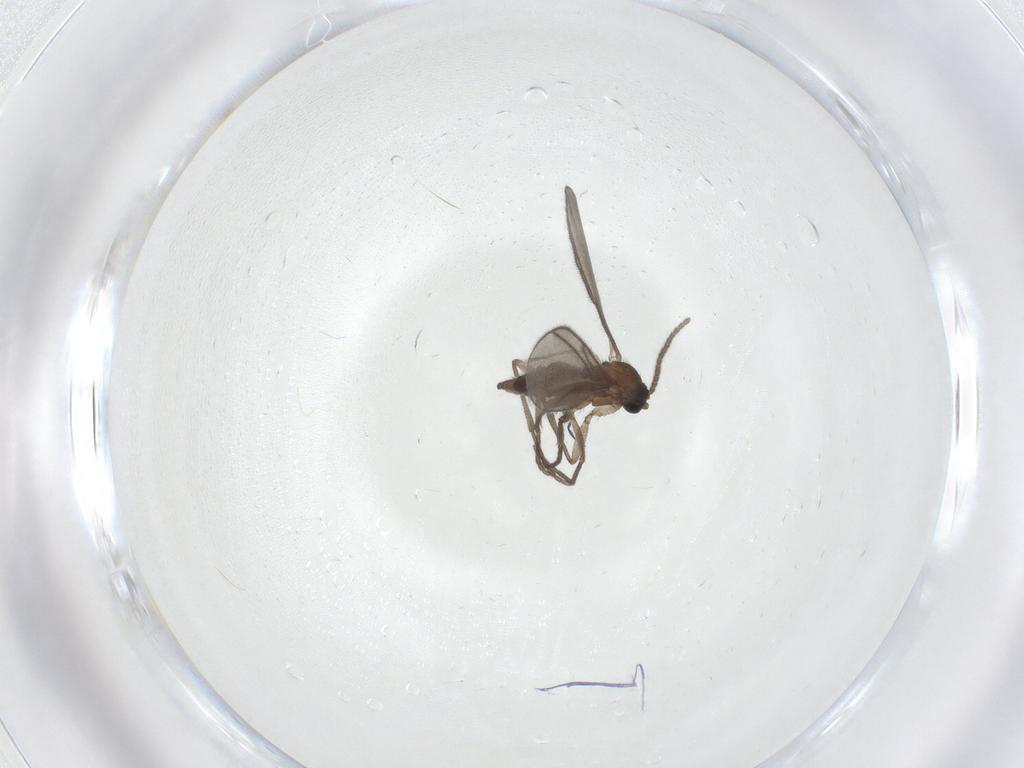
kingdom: Animalia
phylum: Arthropoda
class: Insecta
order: Diptera
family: Sciaridae
